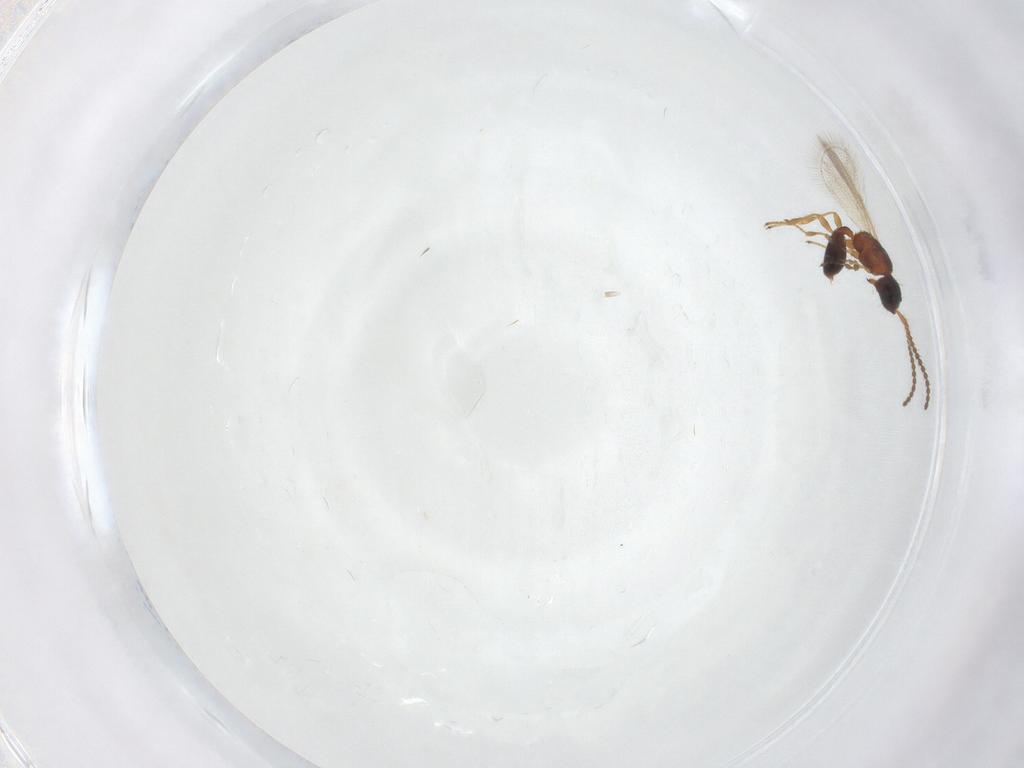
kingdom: Animalia
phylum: Arthropoda
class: Insecta
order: Hymenoptera
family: Diapriidae
